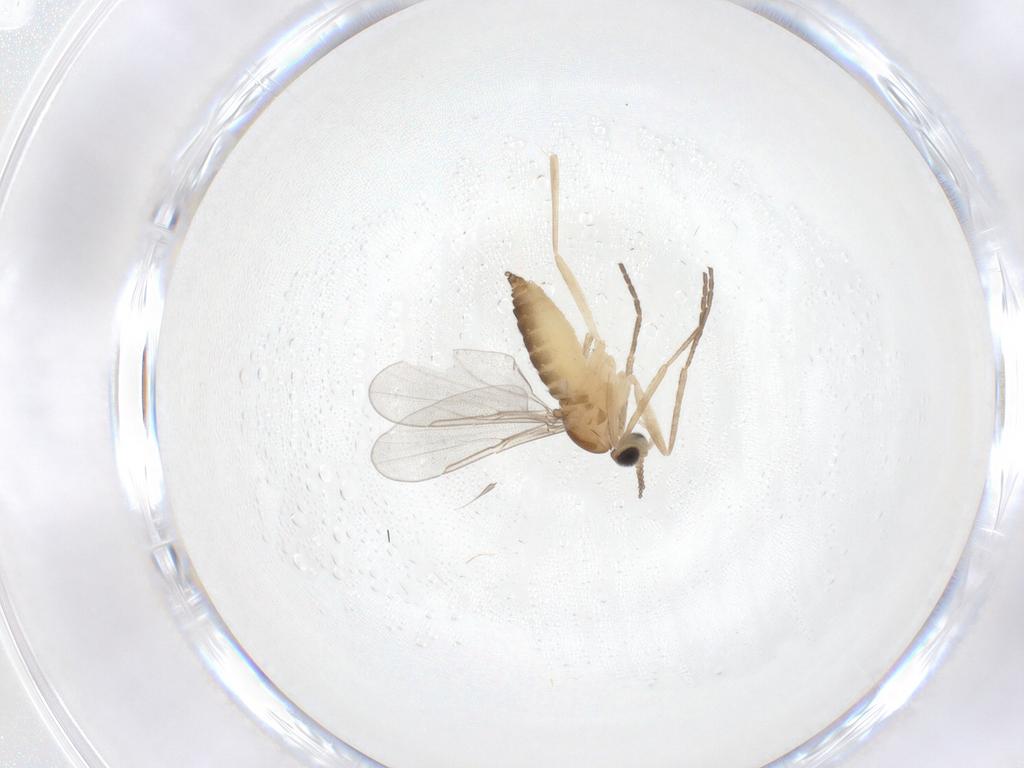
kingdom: Animalia
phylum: Arthropoda
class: Insecta
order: Diptera
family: Cecidomyiidae
